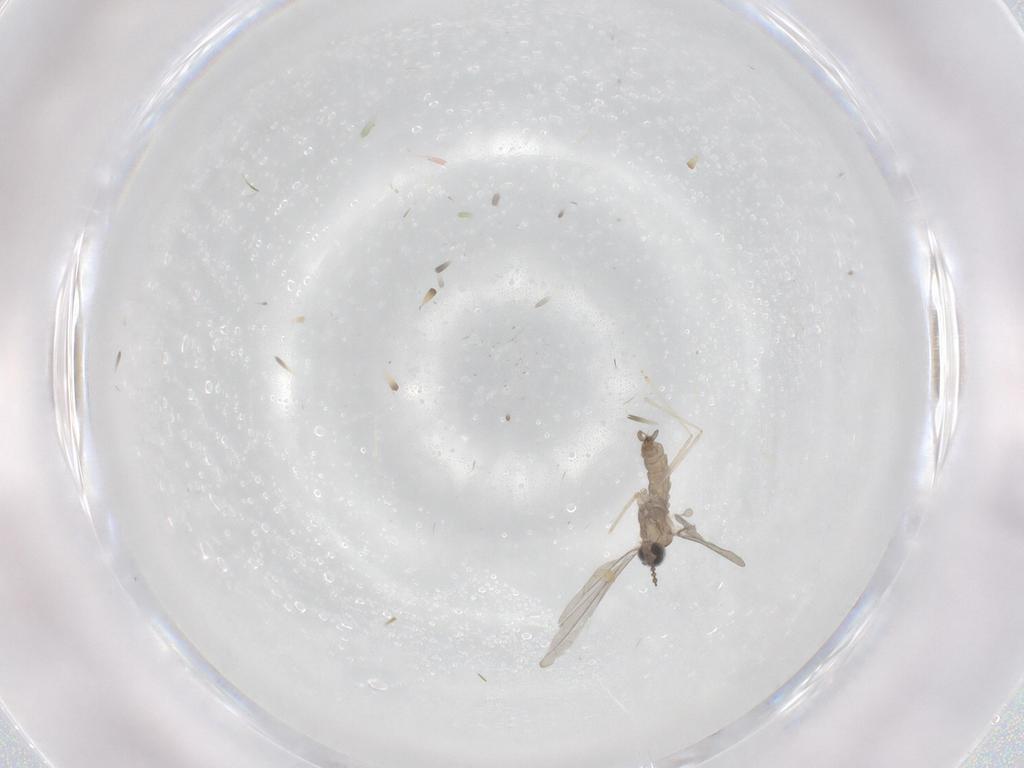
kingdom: Animalia
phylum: Arthropoda
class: Insecta
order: Diptera
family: Cecidomyiidae
